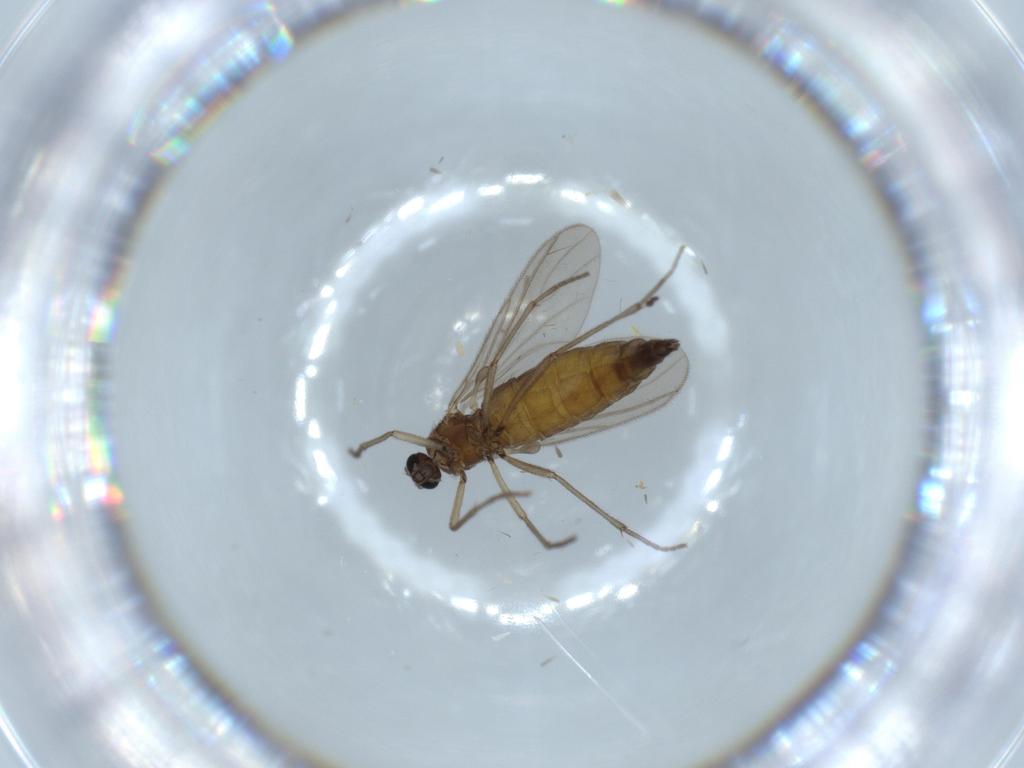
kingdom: Animalia
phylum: Arthropoda
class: Insecta
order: Diptera
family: Sciaridae
